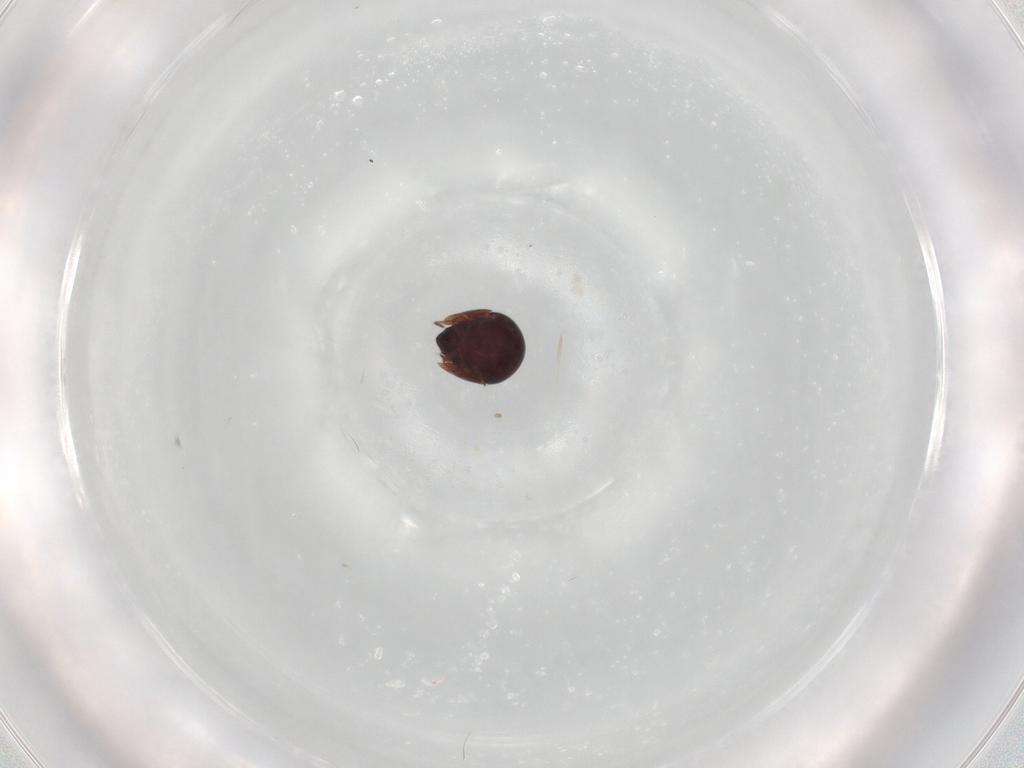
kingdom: Animalia
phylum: Arthropoda
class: Arachnida
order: Sarcoptiformes
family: Galumnidae
